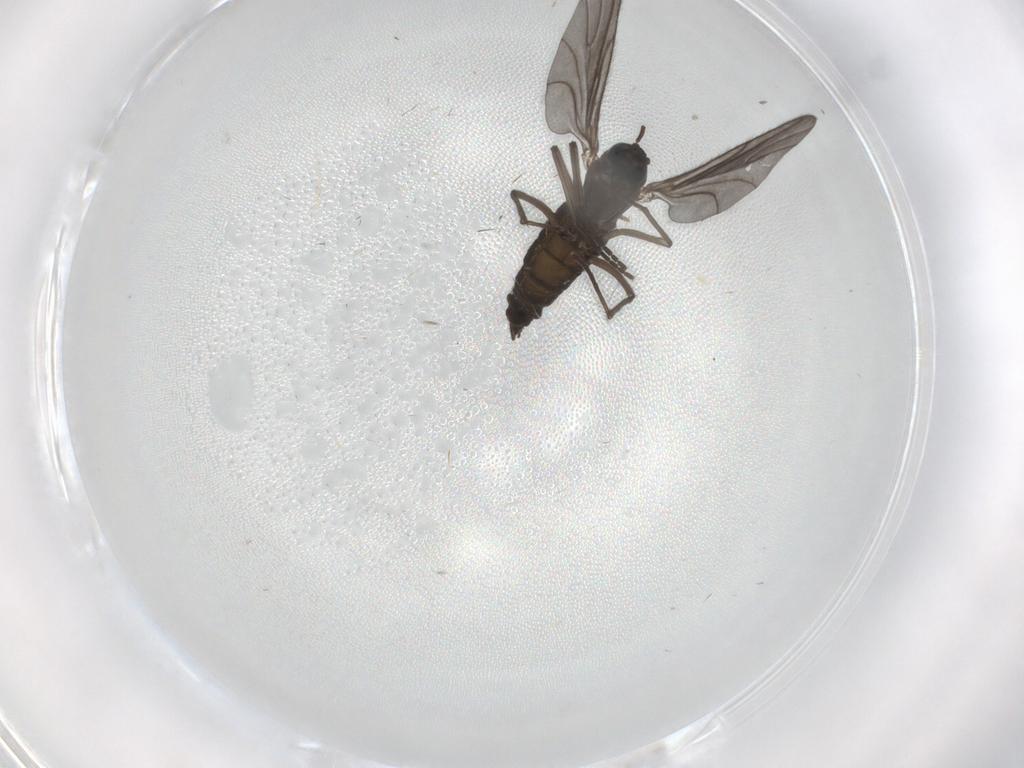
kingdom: Animalia
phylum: Arthropoda
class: Insecta
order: Diptera
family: Sciaridae
